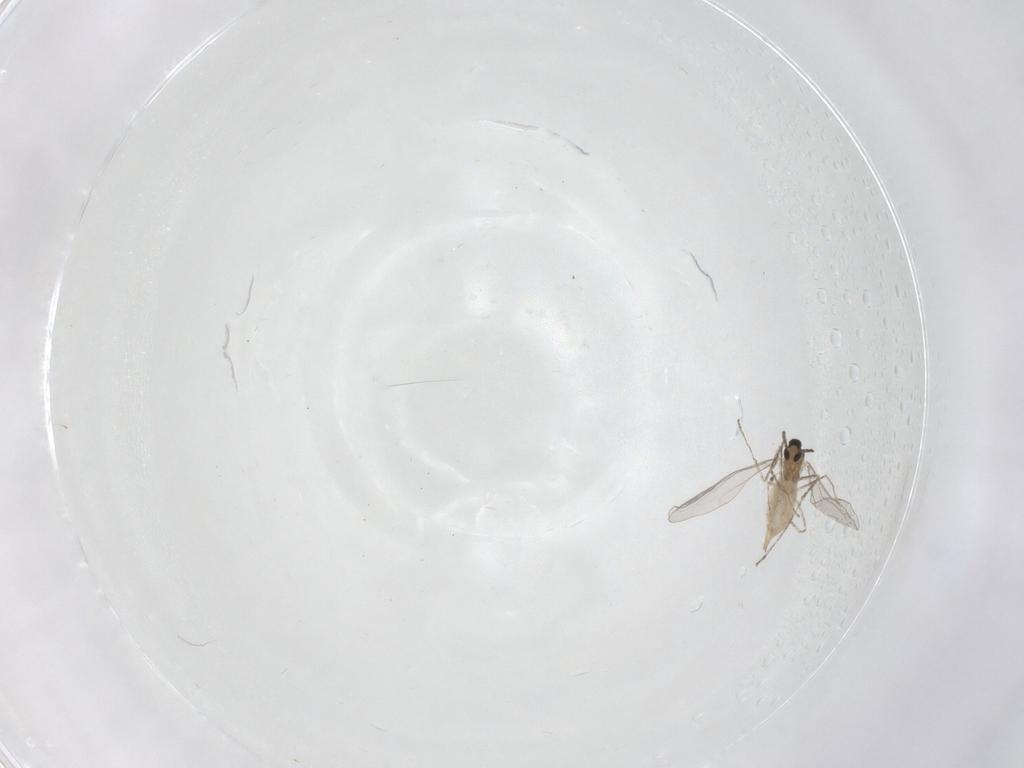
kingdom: Animalia
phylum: Arthropoda
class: Insecta
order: Diptera
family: Cecidomyiidae
